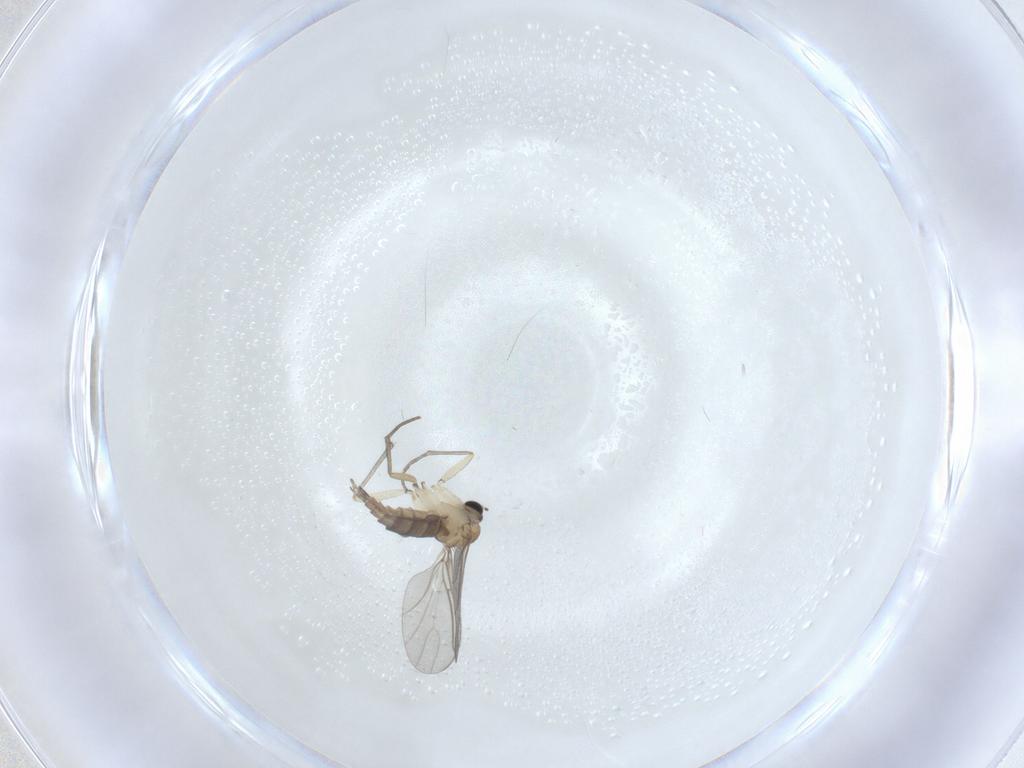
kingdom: Animalia
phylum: Arthropoda
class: Insecta
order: Diptera
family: Sciaridae
